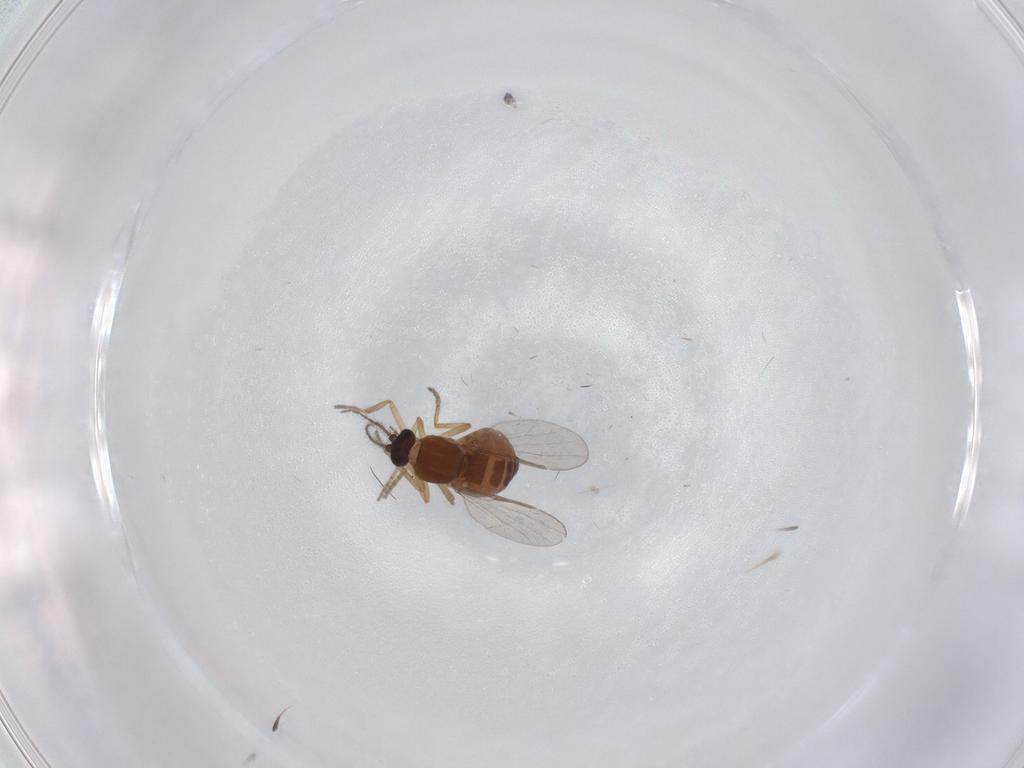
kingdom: Animalia
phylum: Arthropoda
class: Insecta
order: Diptera
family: Ceratopogonidae
